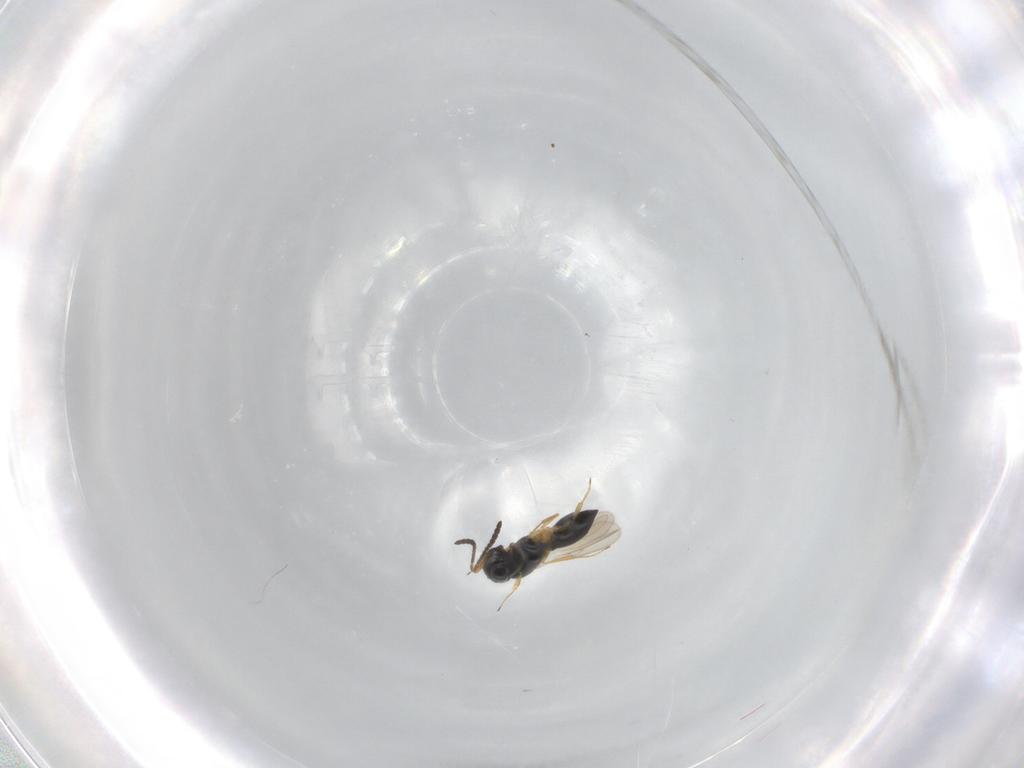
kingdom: Animalia
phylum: Arthropoda
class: Insecta
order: Hymenoptera
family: Scelionidae
